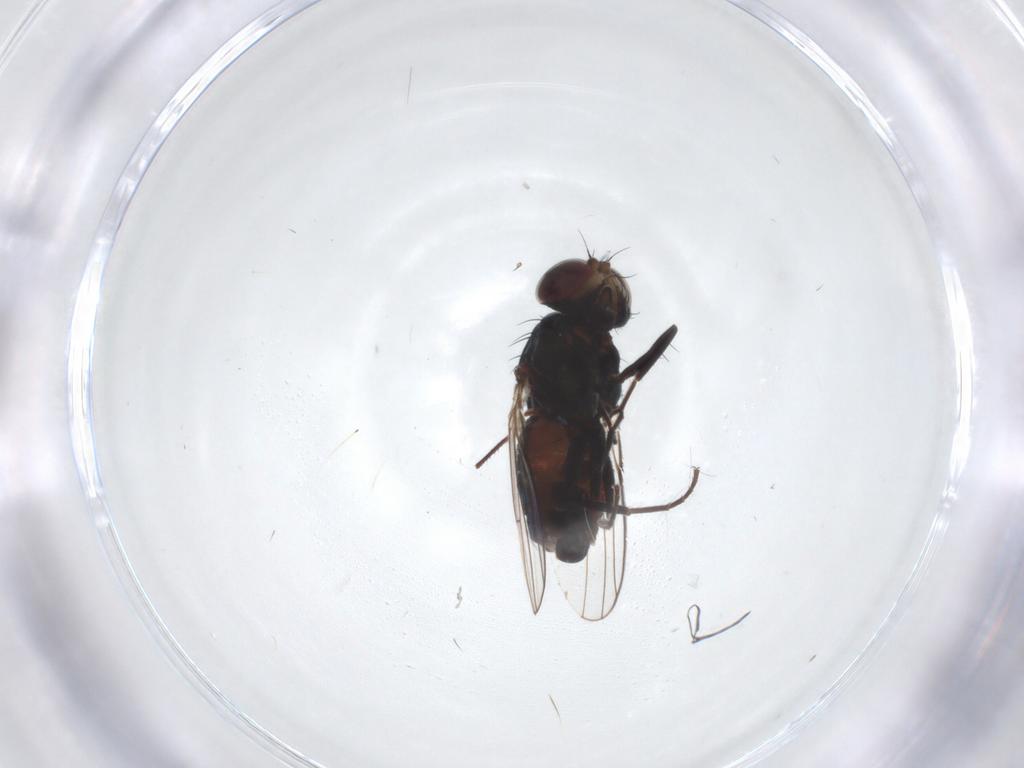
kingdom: Animalia
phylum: Arthropoda
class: Insecta
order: Diptera
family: Carnidae
